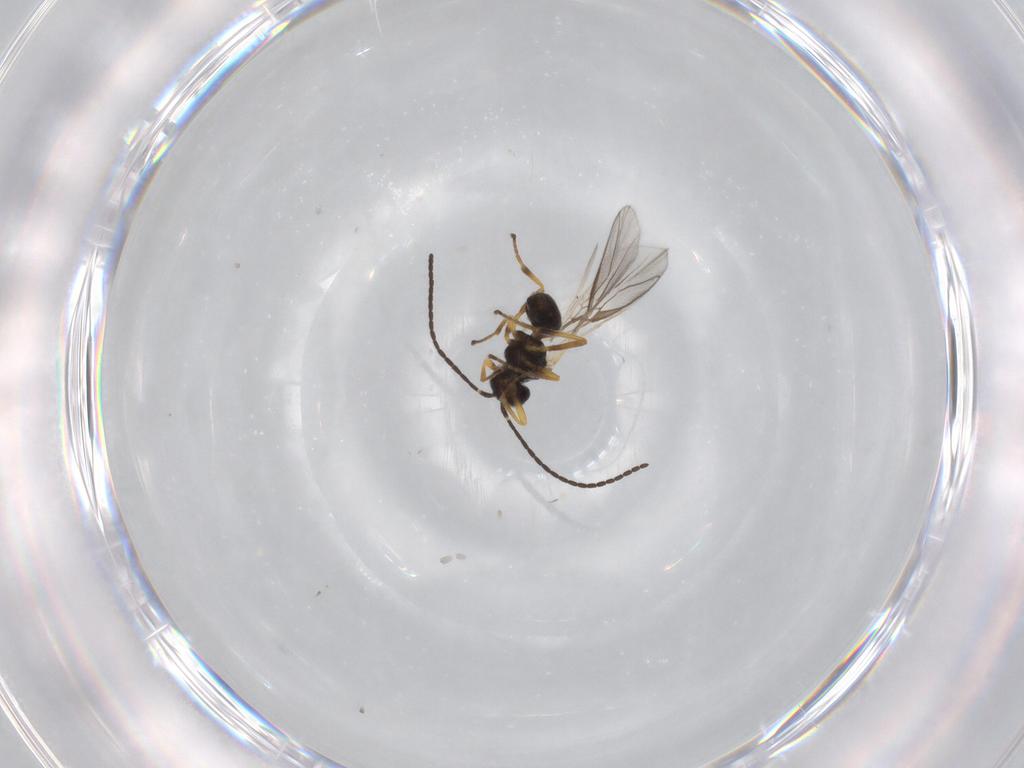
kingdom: Animalia
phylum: Arthropoda
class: Insecta
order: Hymenoptera
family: Braconidae
